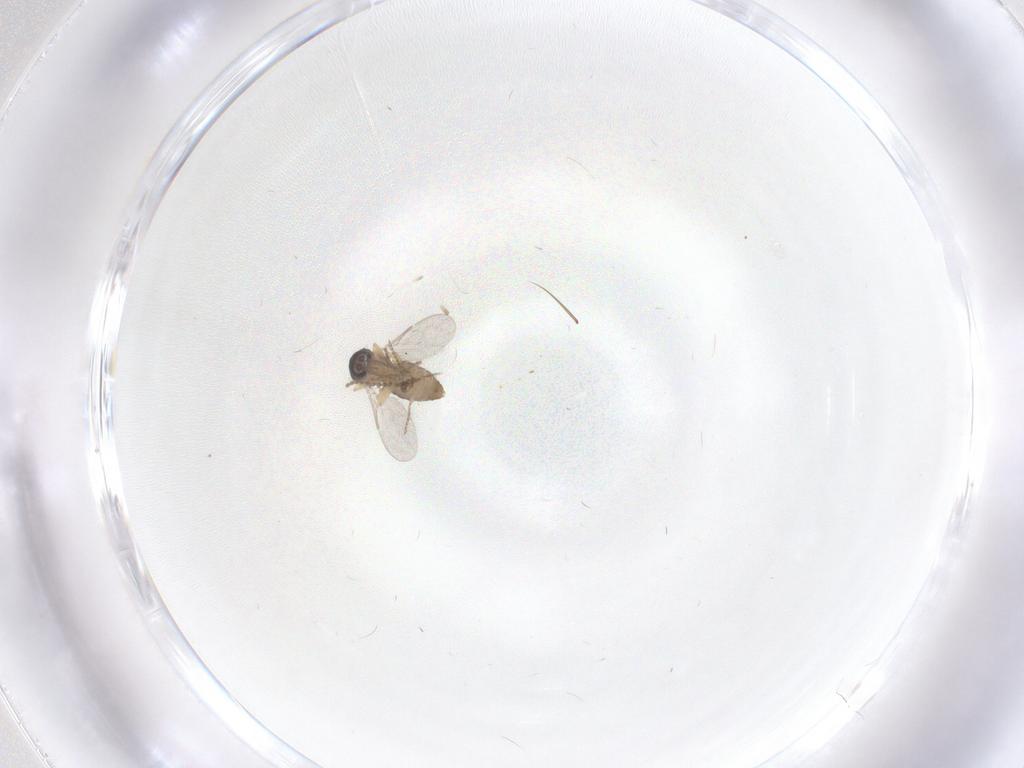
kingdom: Animalia
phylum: Arthropoda
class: Insecta
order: Diptera
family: Ceratopogonidae
